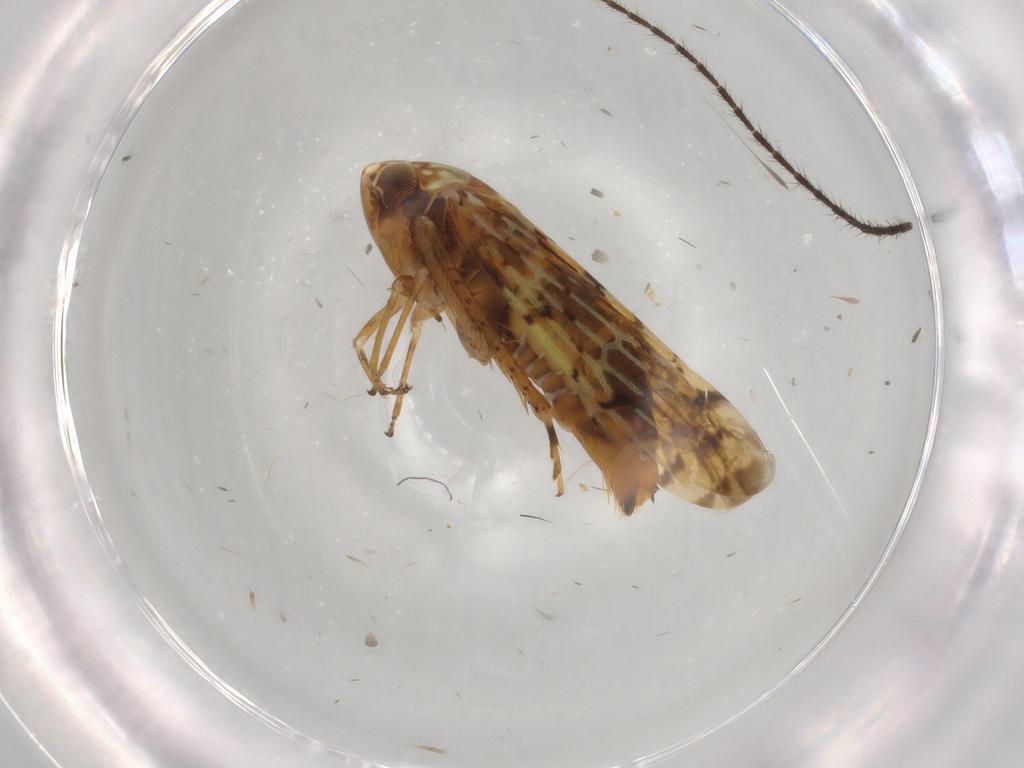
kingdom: Animalia
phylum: Arthropoda
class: Insecta
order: Hemiptera
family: Cicadellidae
